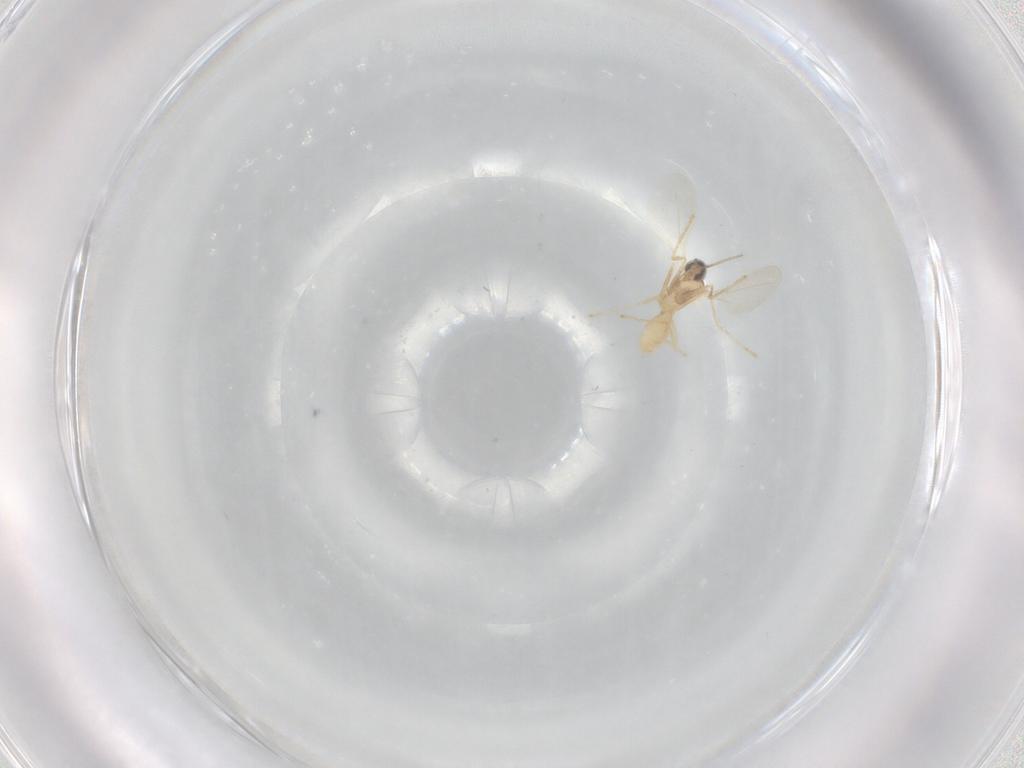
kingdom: Animalia
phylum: Arthropoda
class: Insecta
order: Diptera
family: Cecidomyiidae
